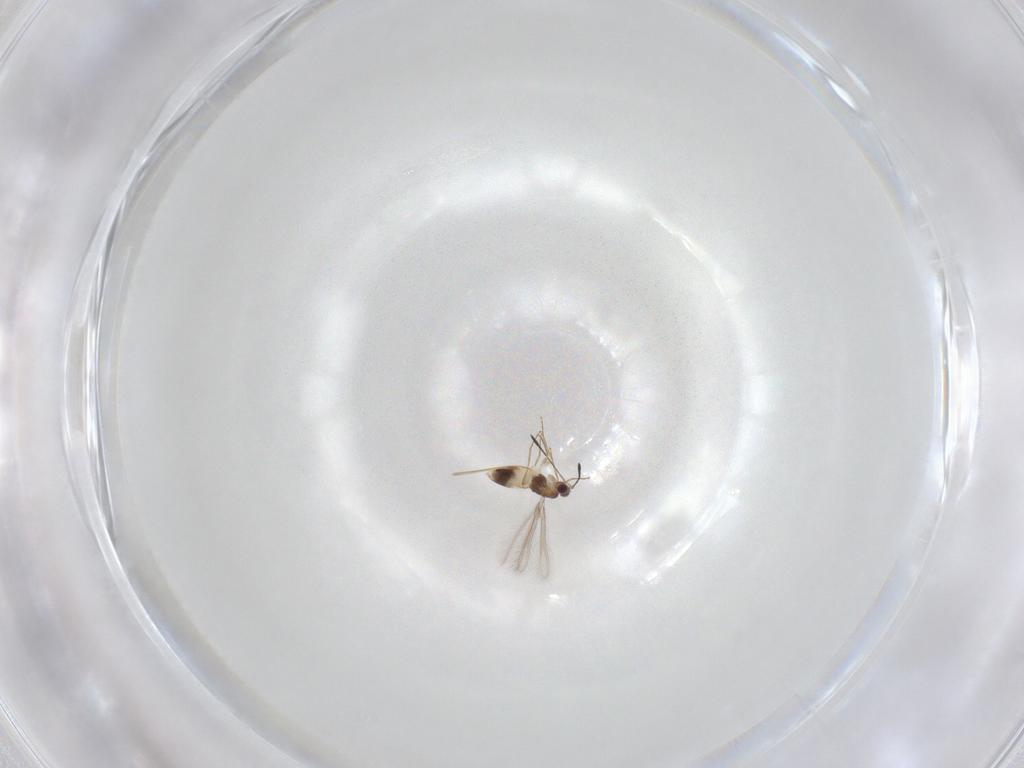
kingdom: Animalia
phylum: Arthropoda
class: Insecta
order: Hymenoptera
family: Mymaridae
